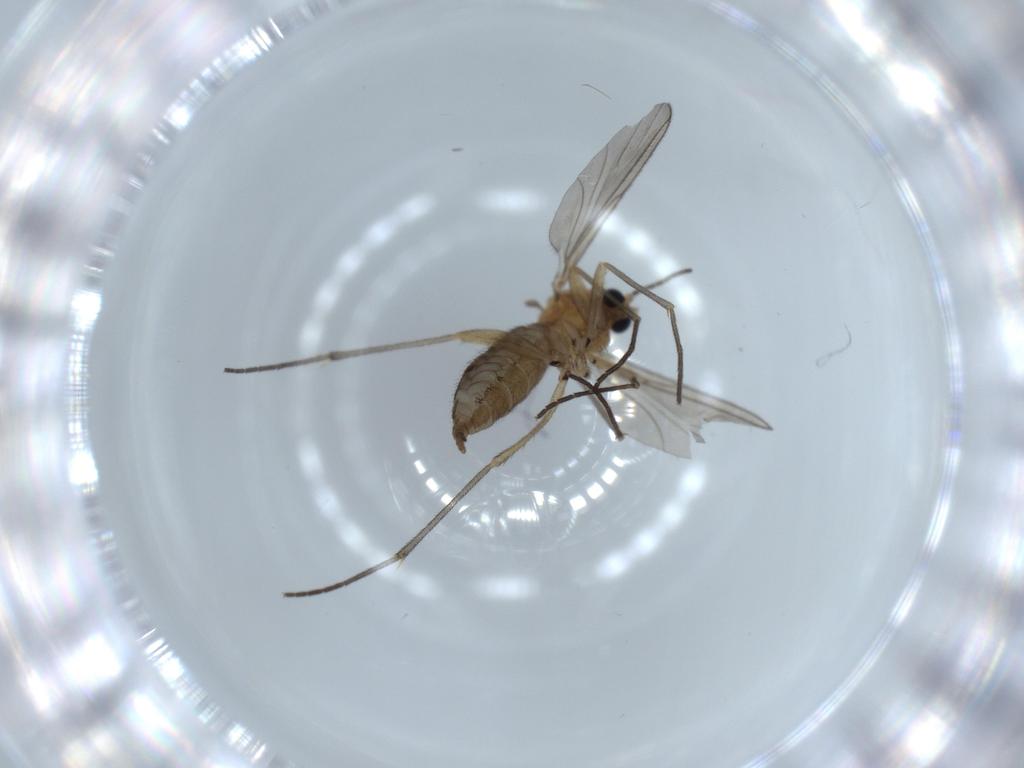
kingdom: Animalia
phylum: Arthropoda
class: Insecta
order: Diptera
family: Sciaridae
